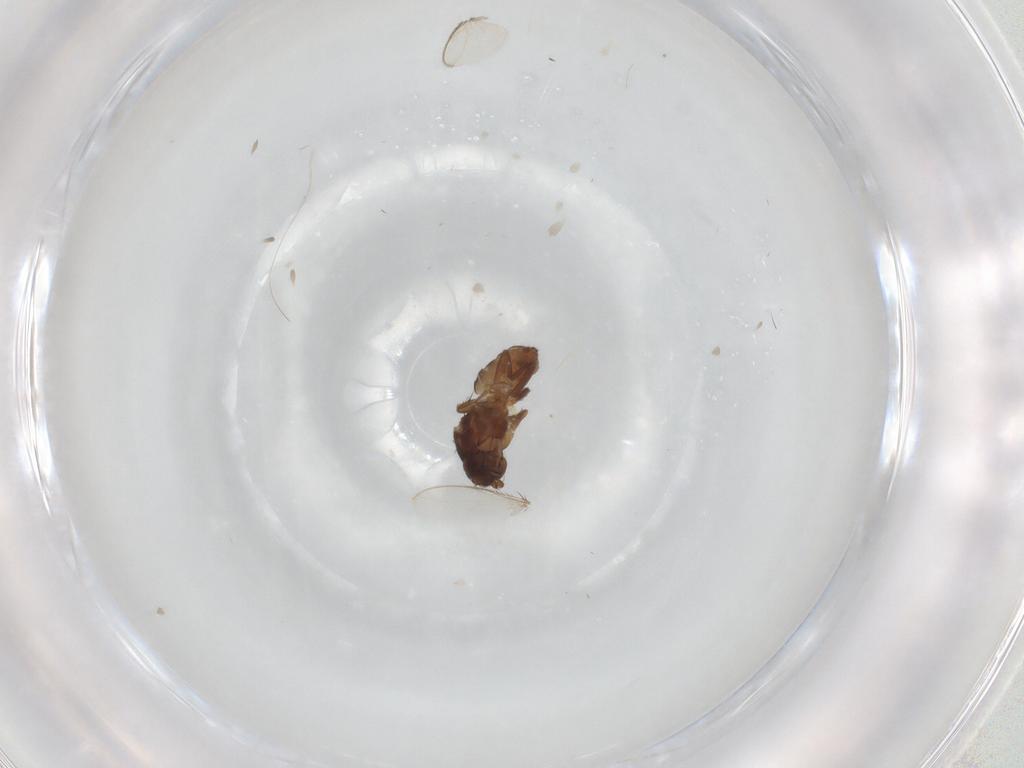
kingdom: Animalia
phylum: Arthropoda
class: Insecta
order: Diptera
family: Sphaeroceridae
